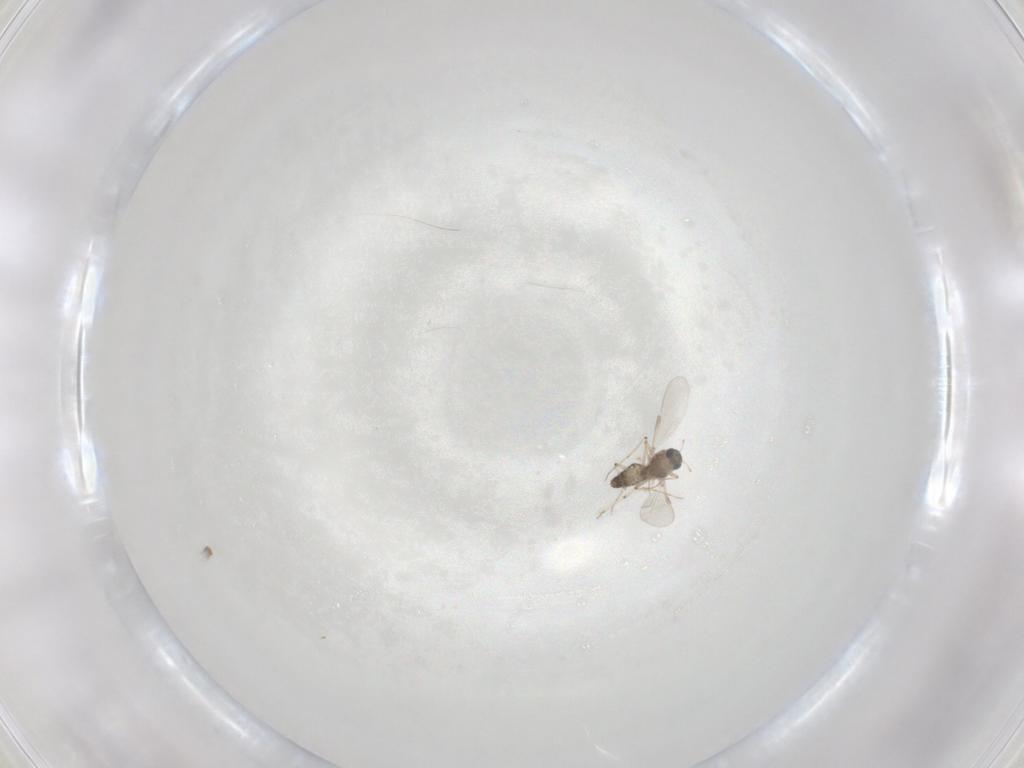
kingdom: Animalia
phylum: Arthropoda
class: Insecta
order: Diptera
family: Chironomidae
